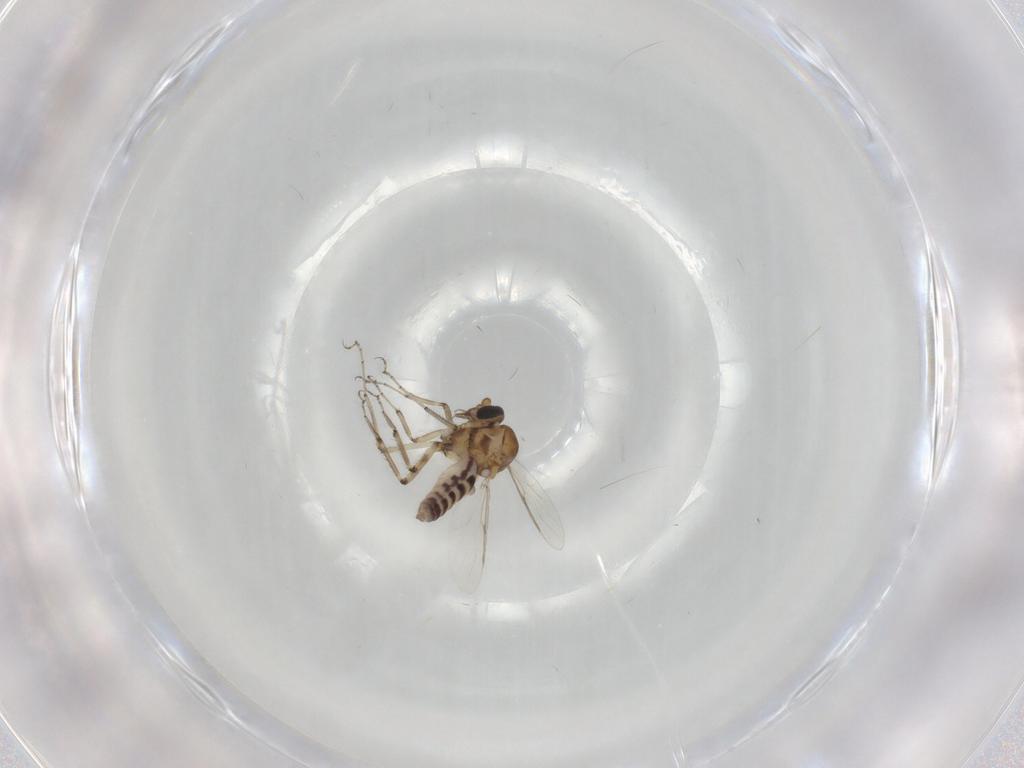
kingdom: Animalia
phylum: Arthropoda
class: Insecta
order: Diptera
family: Ceratopogonidae
